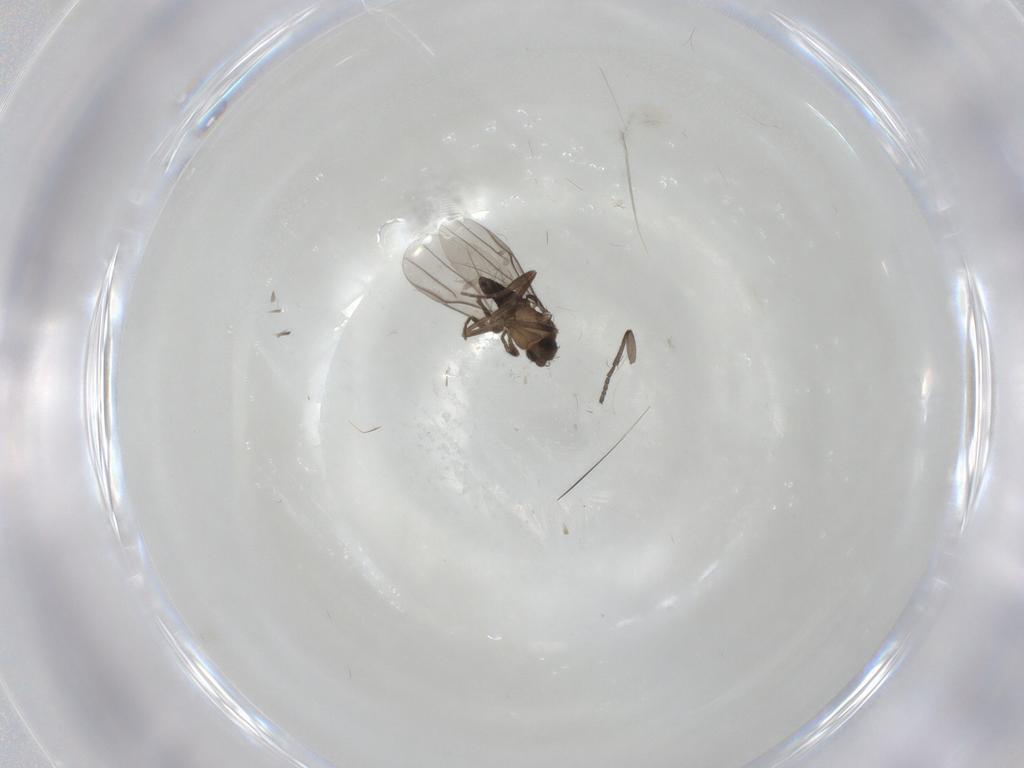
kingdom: Animalia
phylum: Arthropoda
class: Insecta
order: Diptera
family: Phoridae
